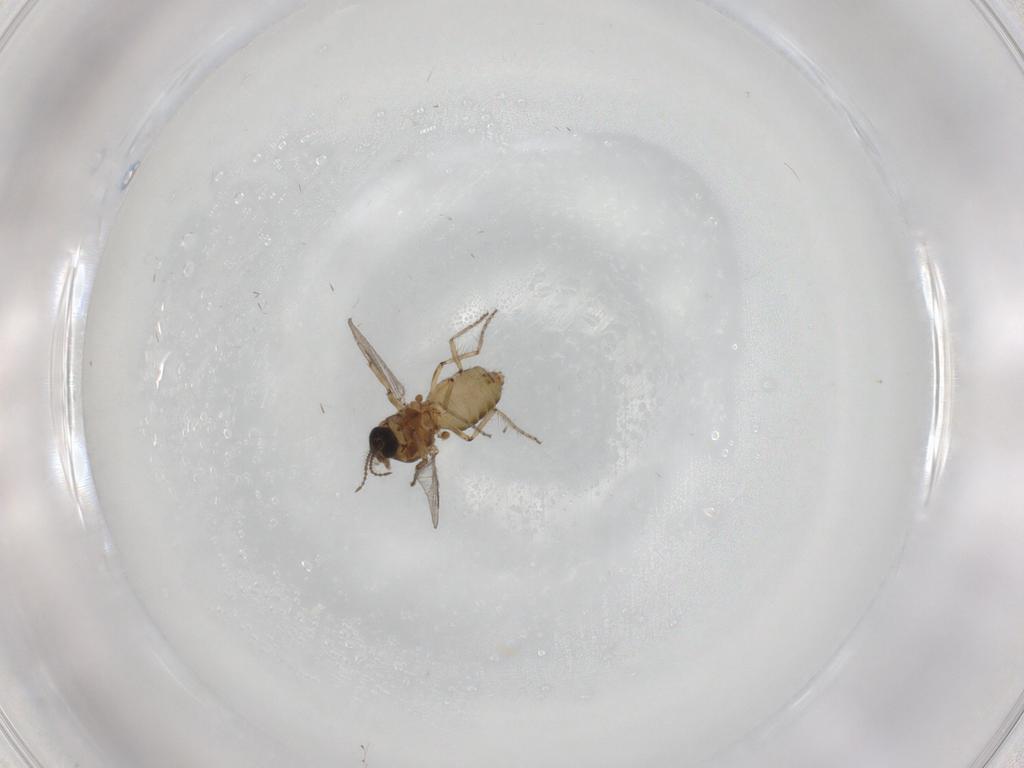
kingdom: Animalia
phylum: Arthropoda
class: Insecta
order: Diptera
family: Ceratopogonidae
